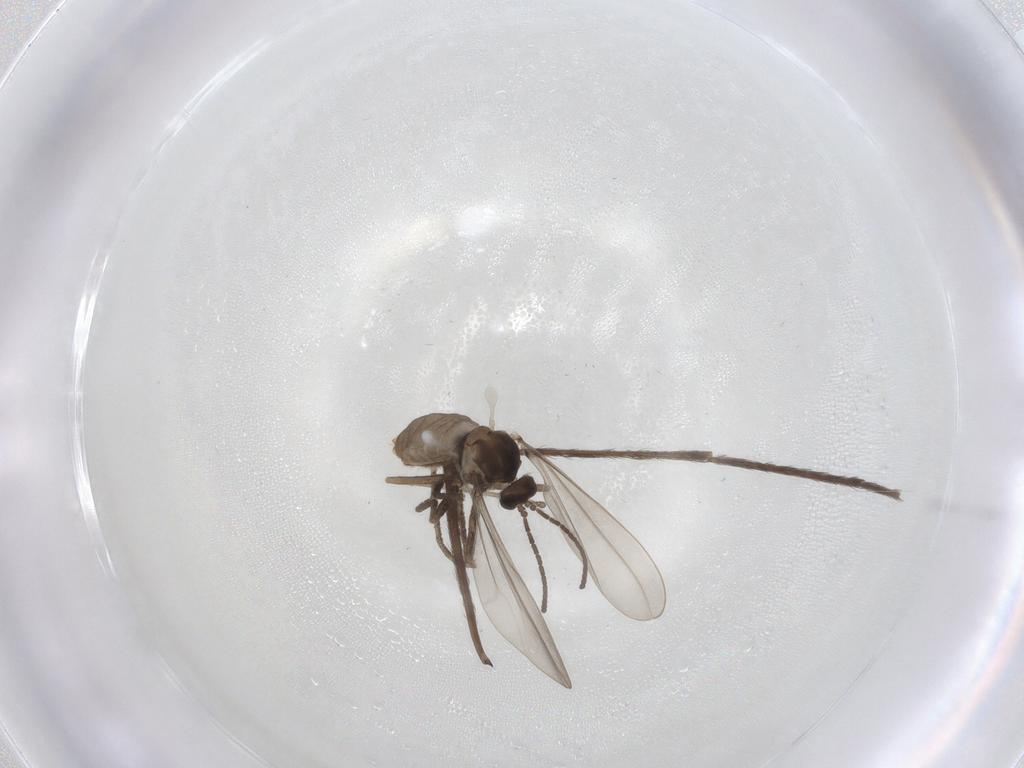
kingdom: Animalia
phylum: Arthropoda
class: Insecta
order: Diptera
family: Cecidomyiidae
